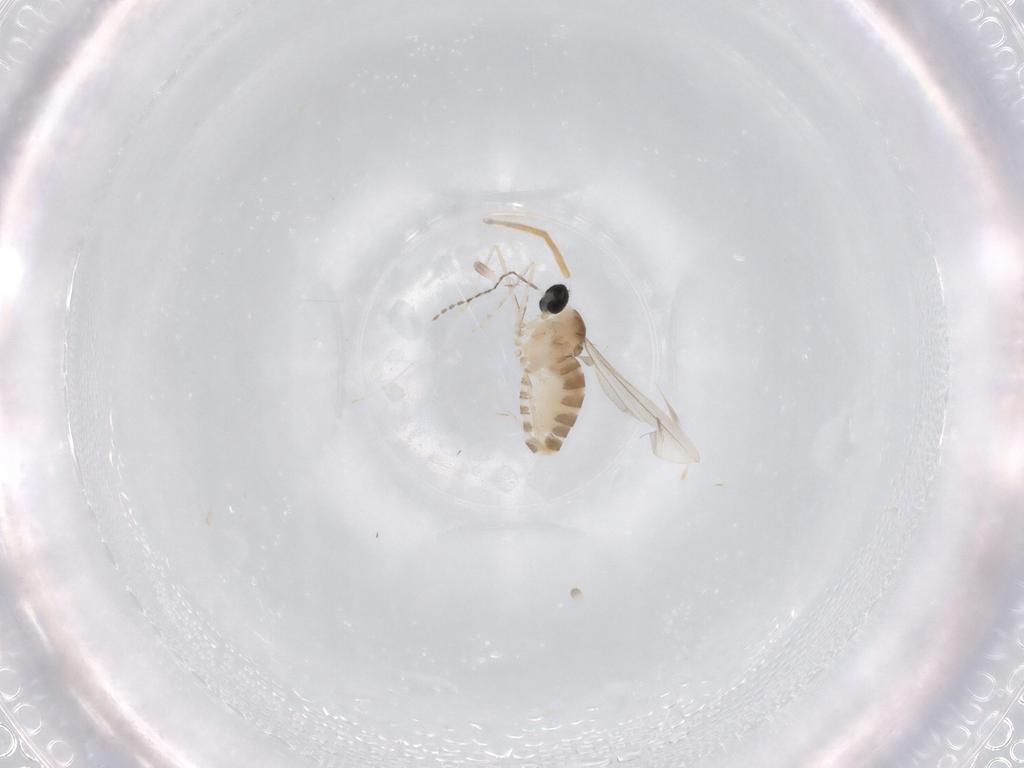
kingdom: Animalia
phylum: Arthropoda
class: Insecta
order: Diptera
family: Cecidomyiidae
